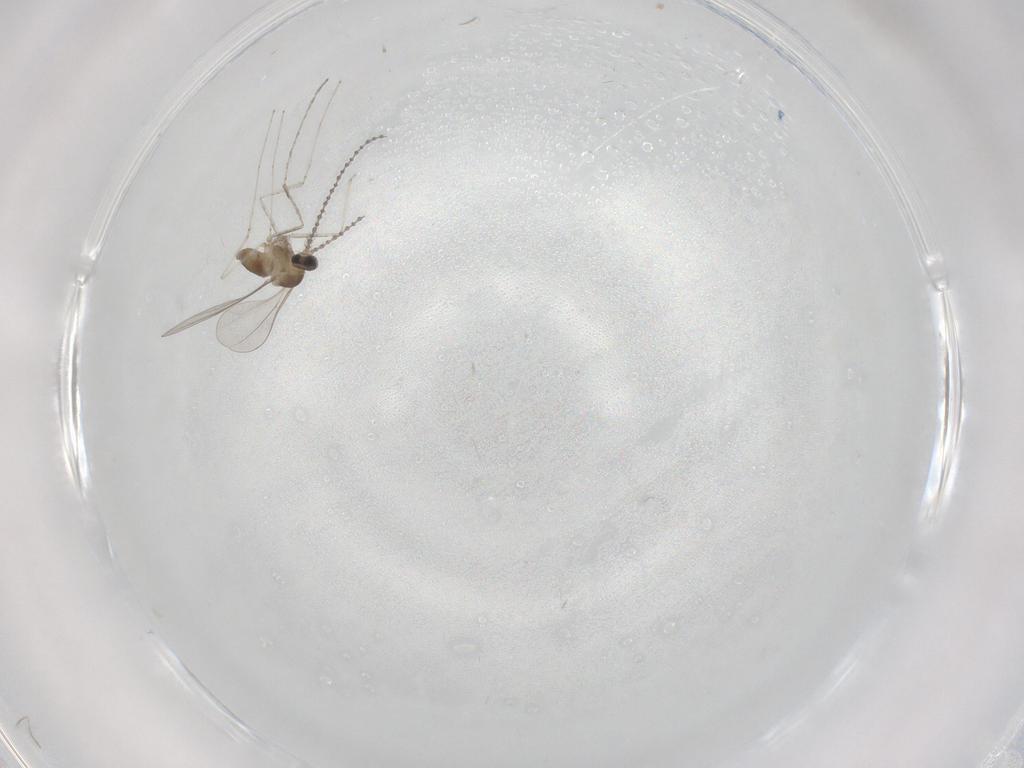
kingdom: Animalia
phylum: Arthropoda
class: Insecta
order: Diptera
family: Cecidomyiidae
